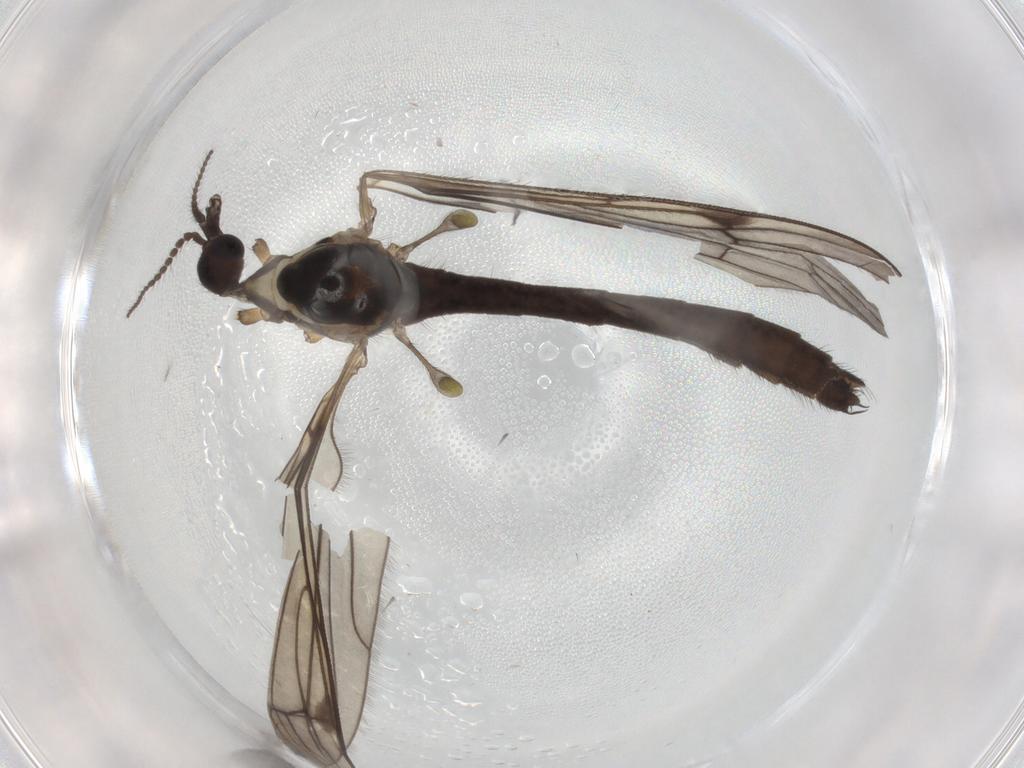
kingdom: Animalia
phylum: Arthropoda
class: Insecta
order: Diptera
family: Limoniidae
